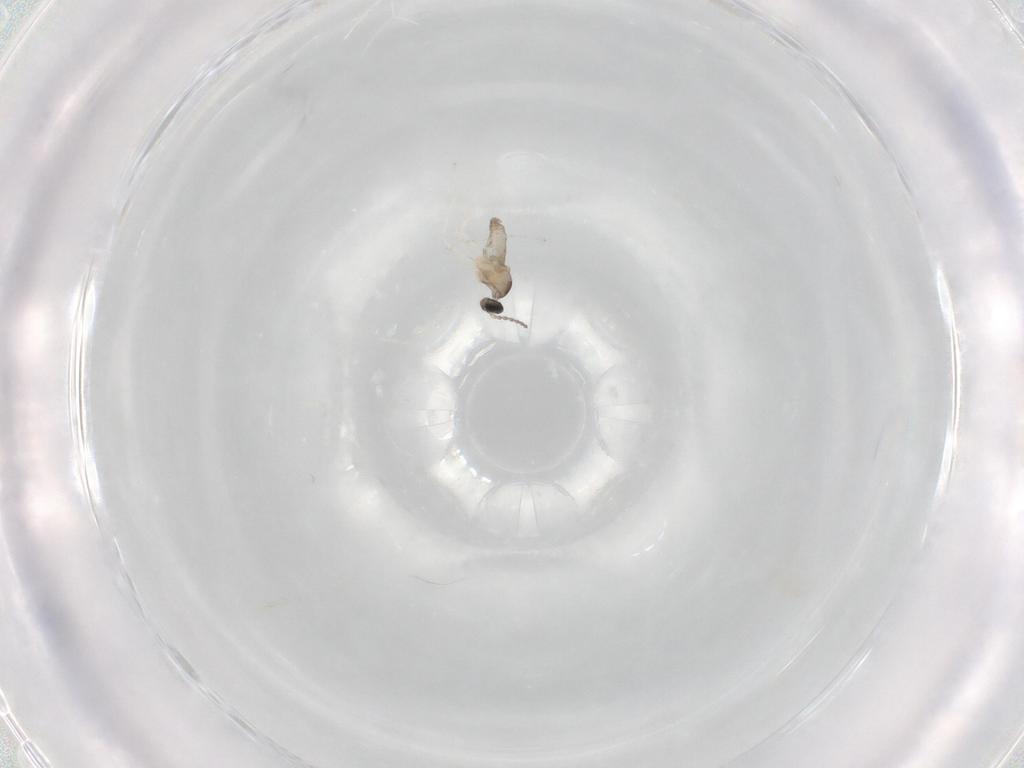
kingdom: Animalia
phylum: Arthropoda
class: Insecta
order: Diptera
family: Cecidomyiidae
